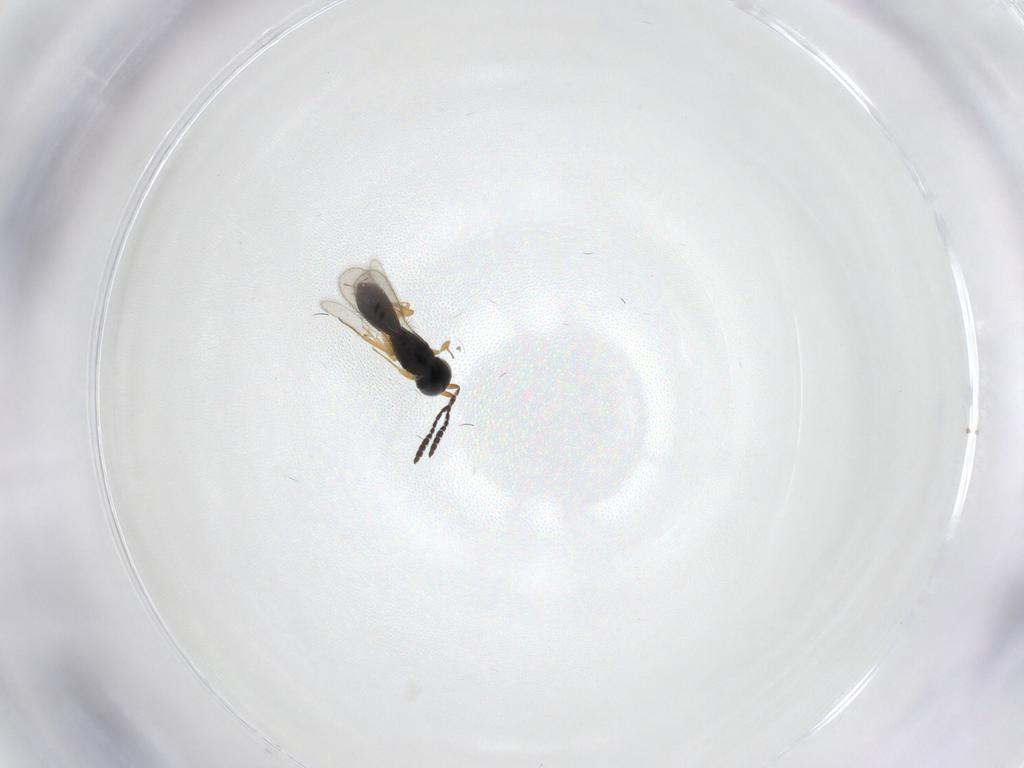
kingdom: Animalia
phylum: Arthropoda
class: Insecta
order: Hymenoptera
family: Scelionidae
